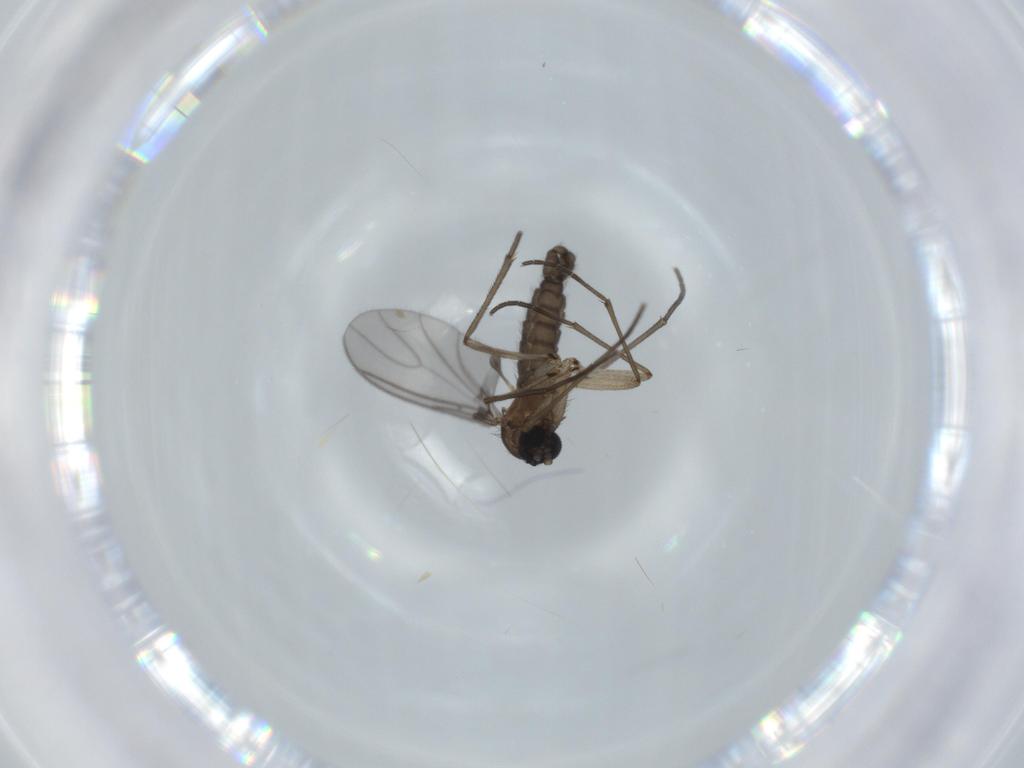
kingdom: Animalia
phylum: Arthropoda
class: Insecta
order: Diptera
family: Sciaridae
